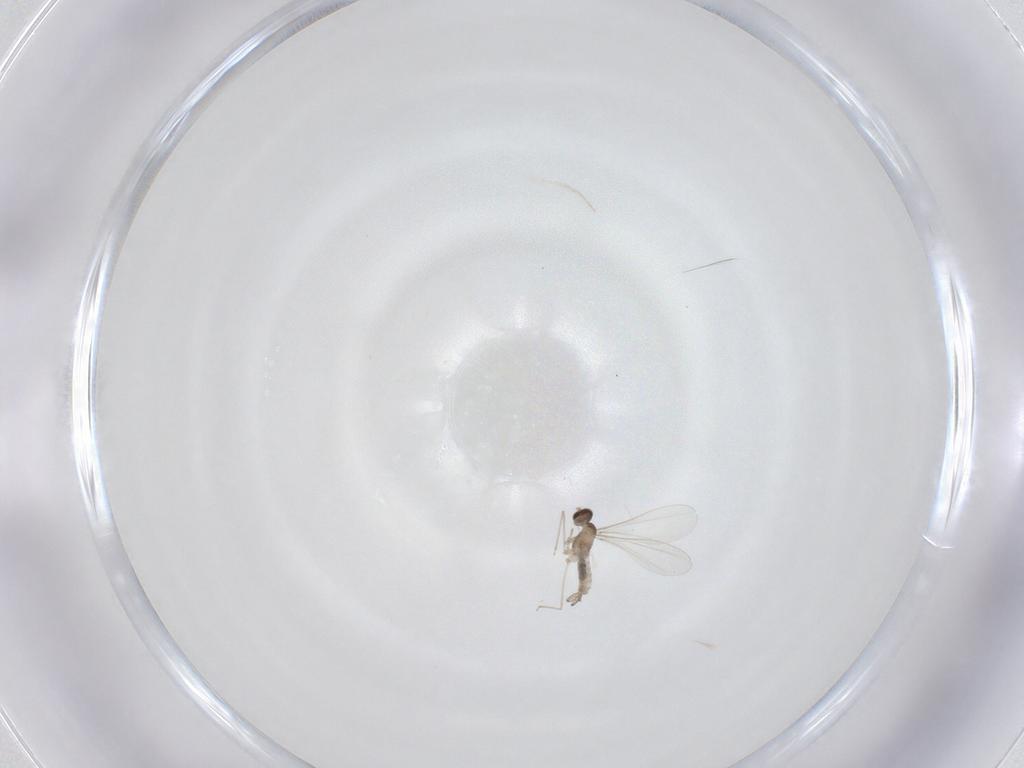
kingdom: Animalia
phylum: Arthropoda
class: Insecta
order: Diptera
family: Cecidomyiidae
